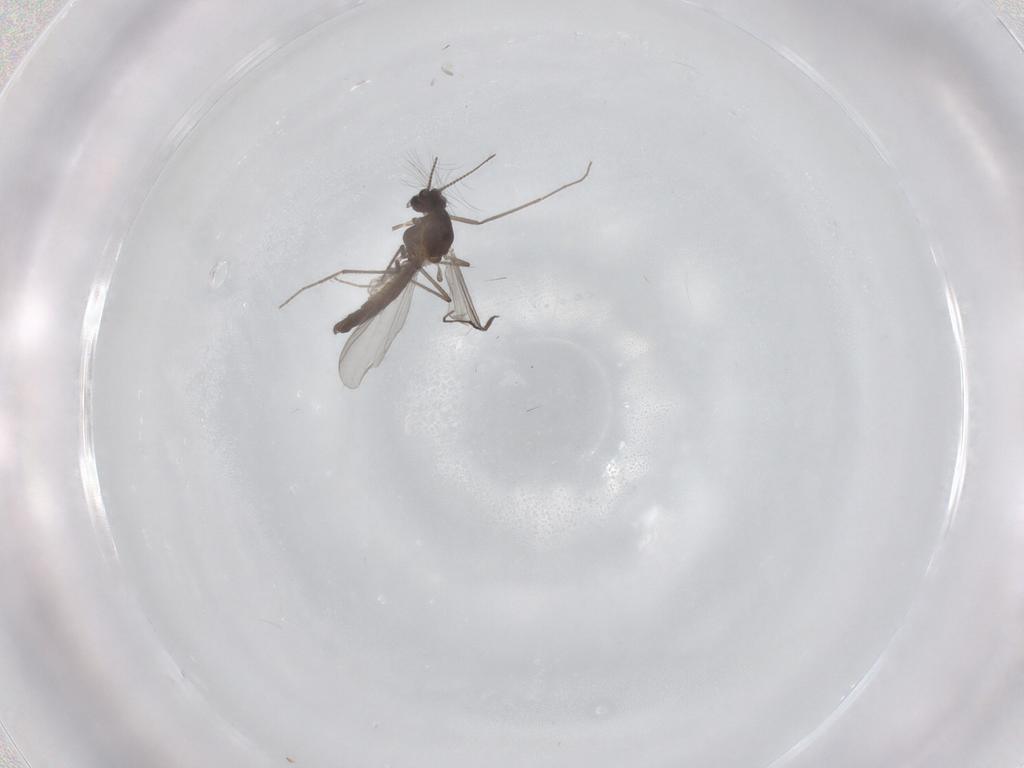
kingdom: Animalia
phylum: Arthropoda
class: Insecta
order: Diptera
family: Chironomidae
